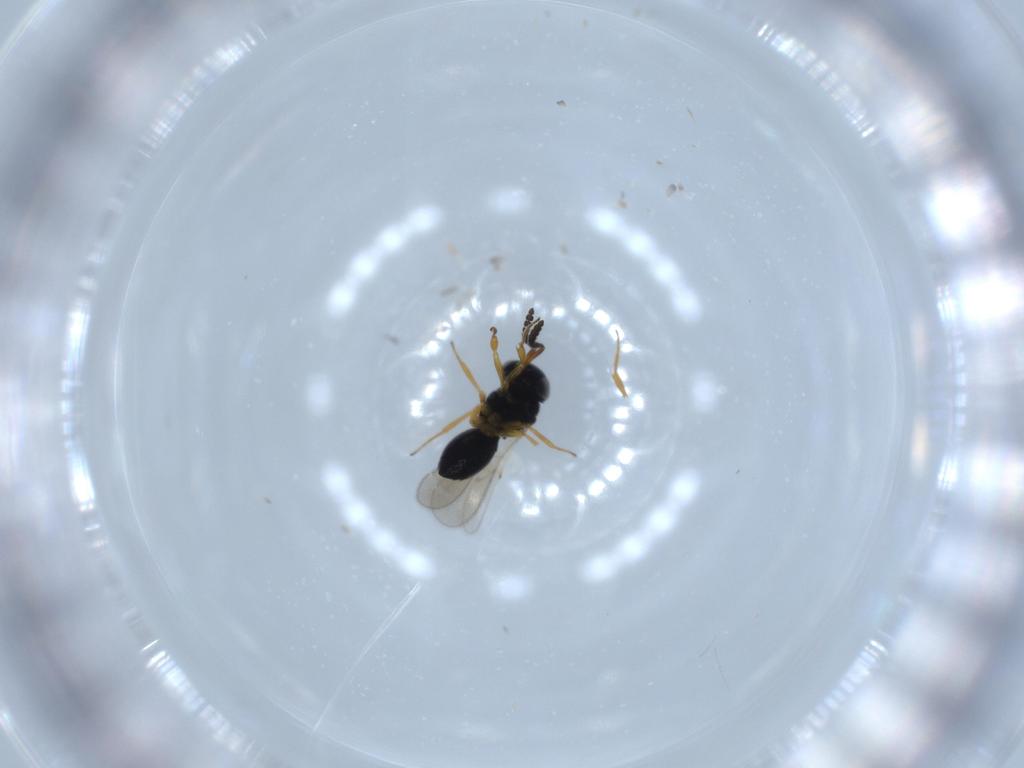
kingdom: Animalia
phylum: Arthropoda
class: Insecta
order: Hymenoptera
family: Scelionidae
